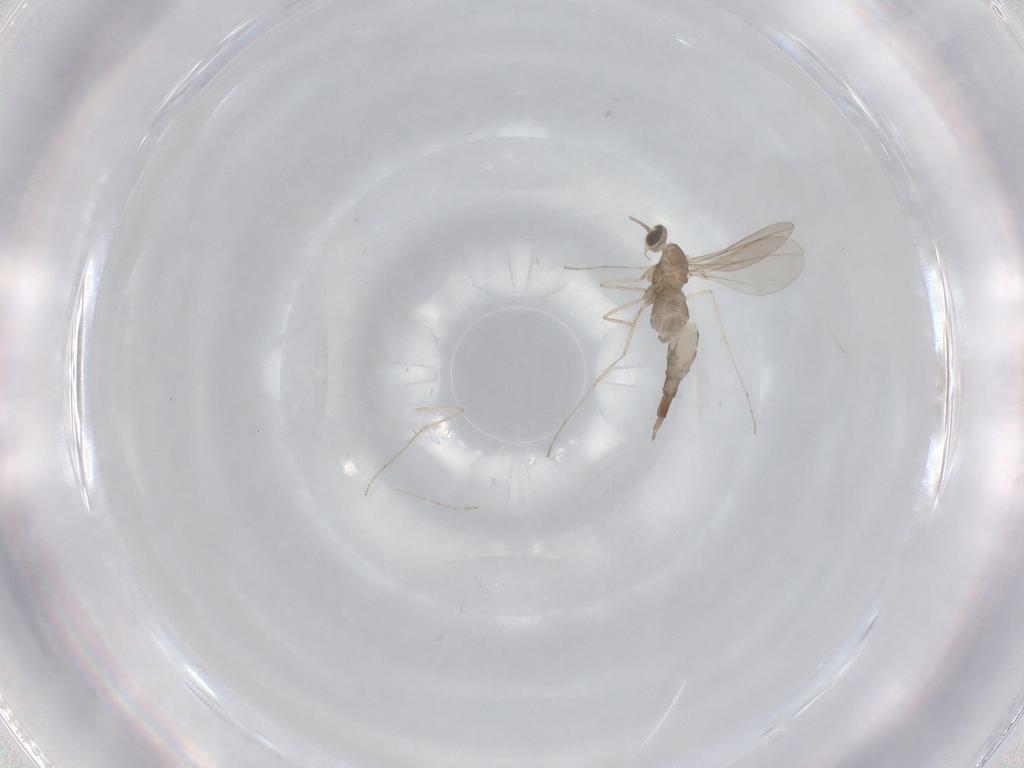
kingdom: Animalia
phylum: Arthropoda
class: Insecta
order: Diptera
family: Cecidomyiidae
